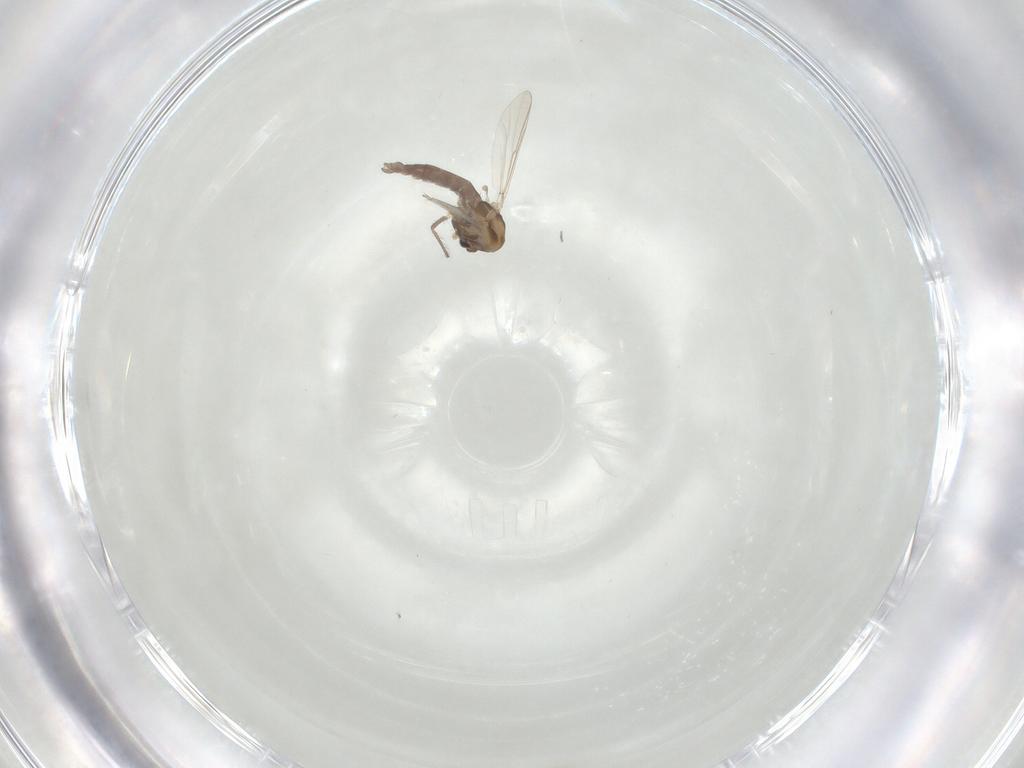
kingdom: Animalia
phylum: Arthropoda
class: Insecta
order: Diptera
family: Chironomidae
